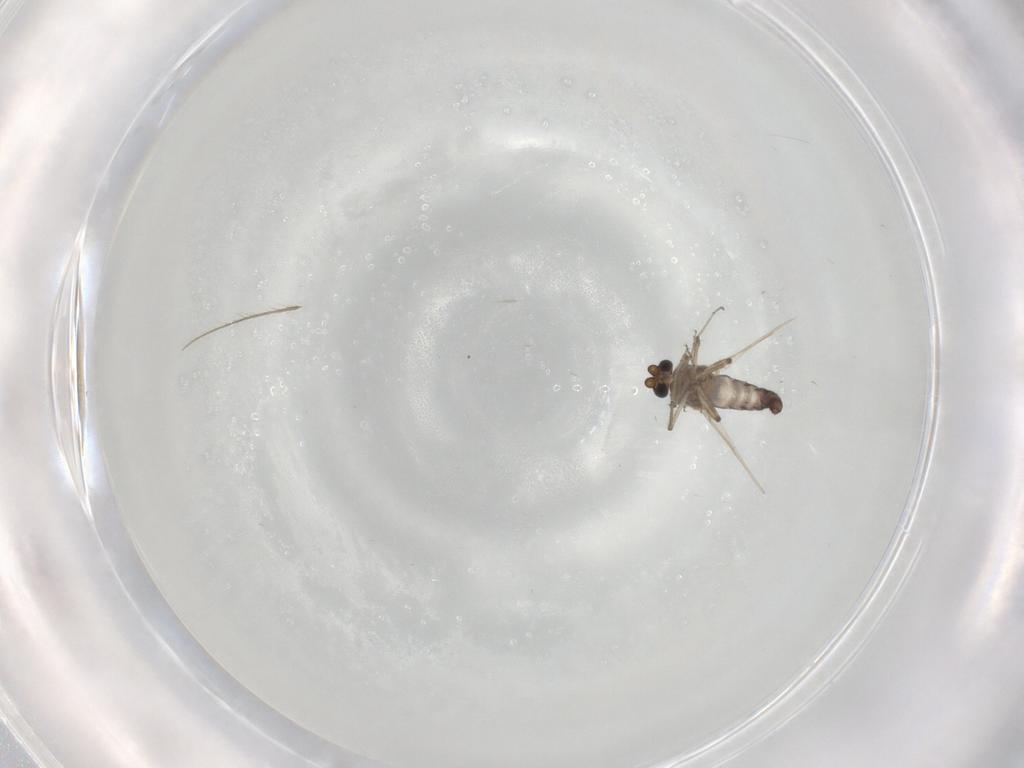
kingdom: Animalia
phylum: Arthropoda
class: Insecta
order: Diptera
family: Ceratopogonidae
